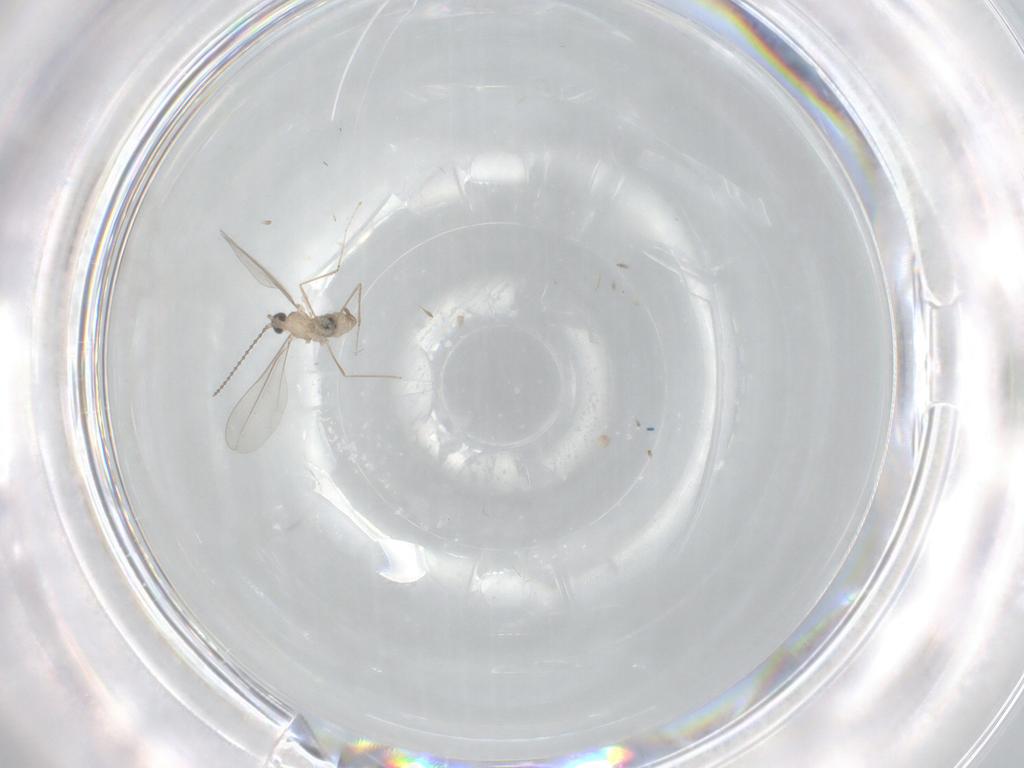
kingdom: Animalia
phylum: Arthropoda
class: Insecta
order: Diptera
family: Cecidomyiidae
